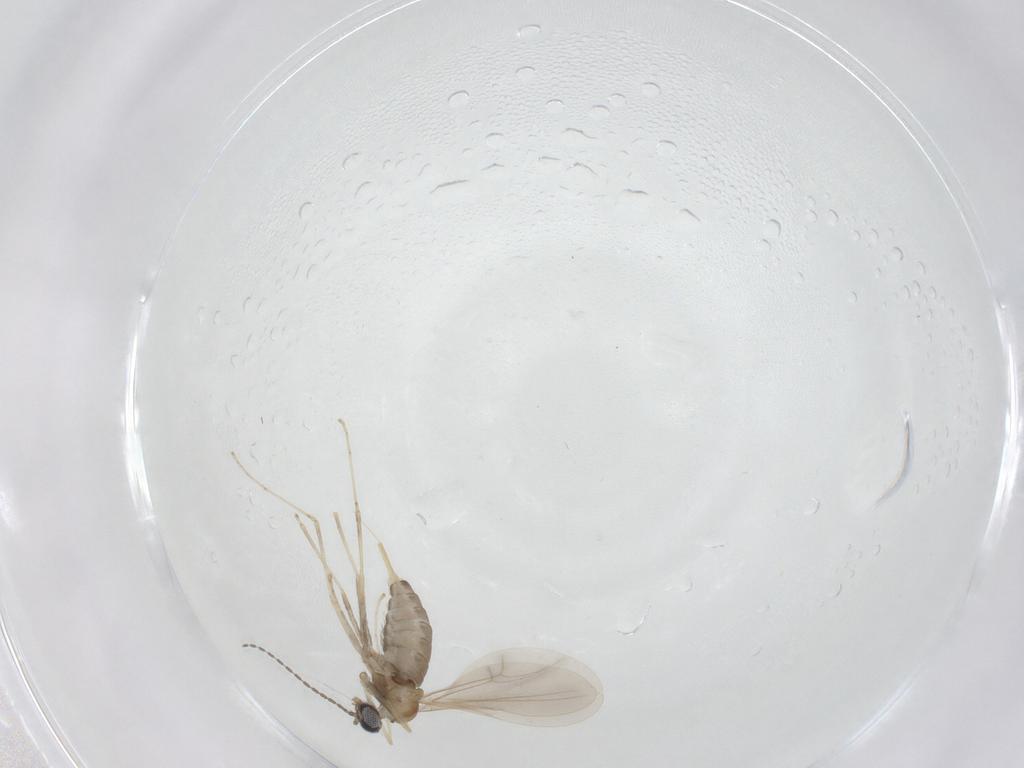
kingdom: Animalia
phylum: Arthropoda
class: Insecta
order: Diptera
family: Cecidomyiidae
